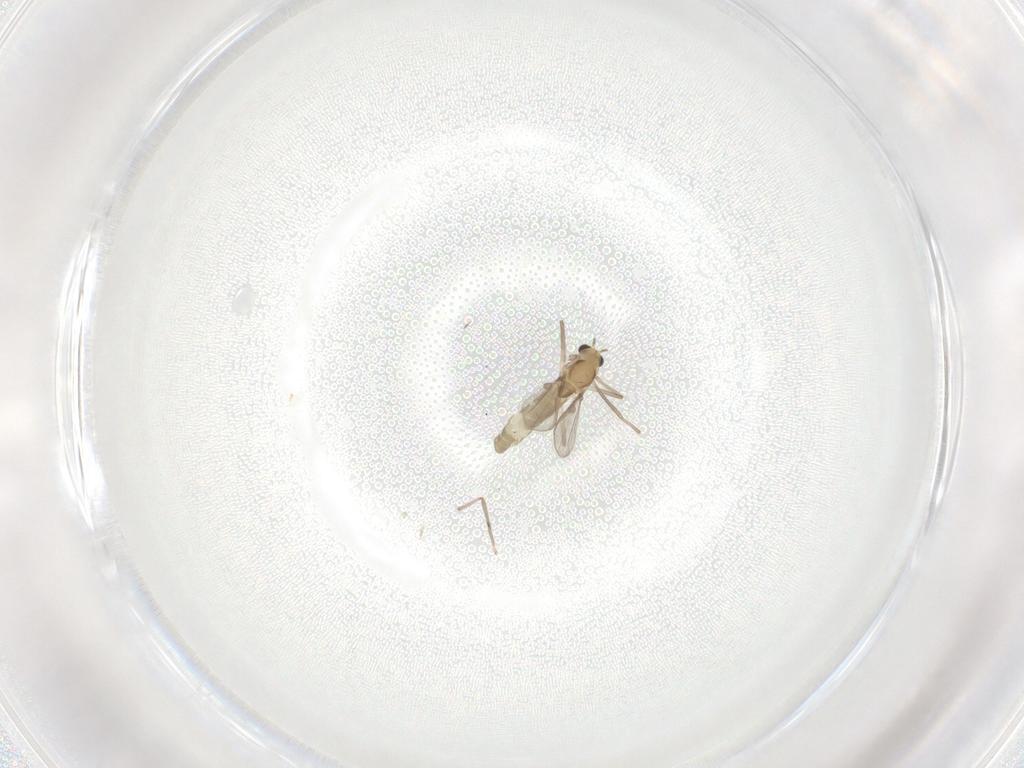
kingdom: Animalia
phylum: Arthropoda
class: Insecta
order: Diptera
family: Chironomidae
